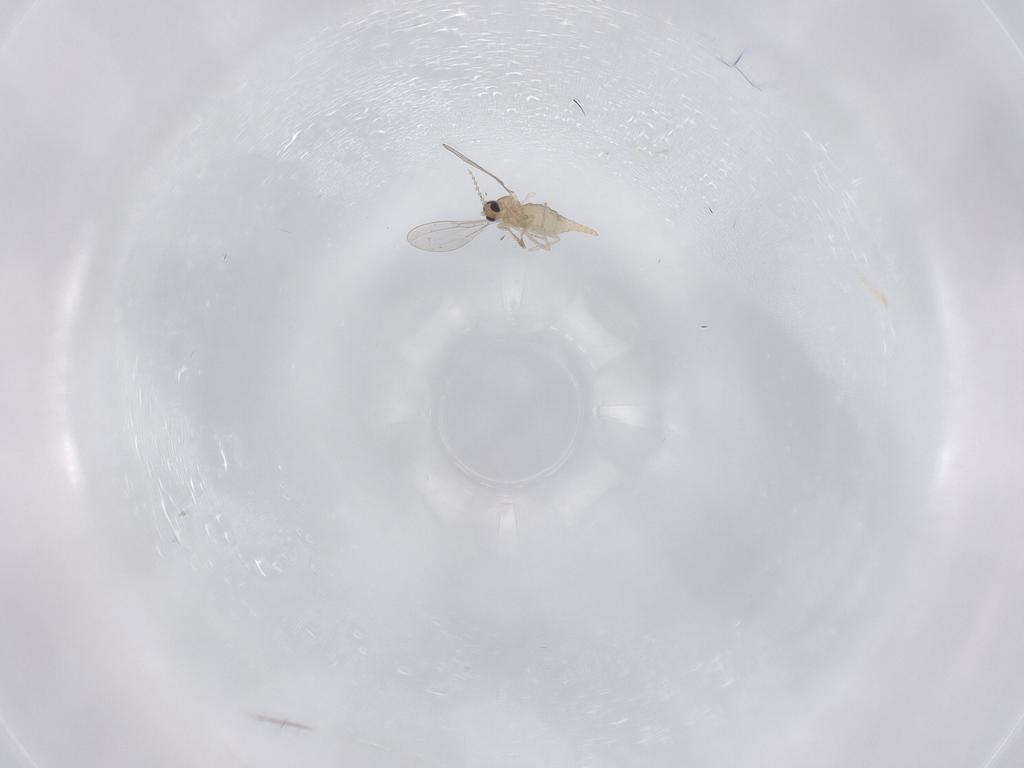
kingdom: Animalia
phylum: Arthropoda
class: Insecta
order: Diptera
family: Cecidomyiidae
